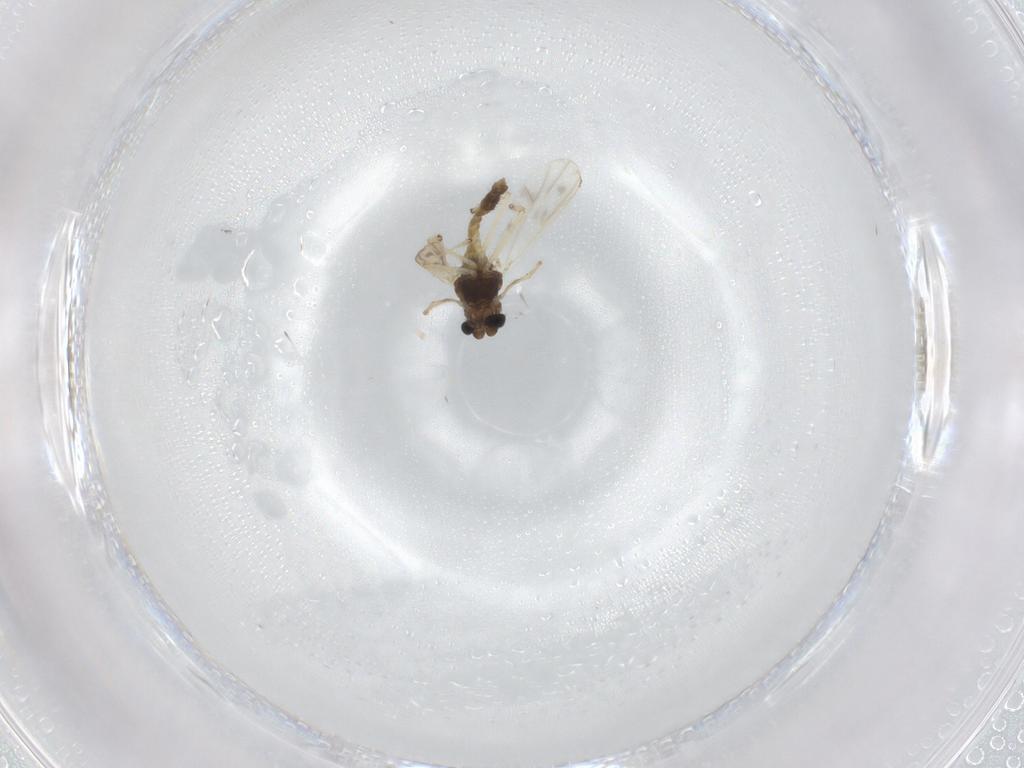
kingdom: Animalia
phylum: Arthropoda
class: Insecta
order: Diptera
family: Chironomidae
